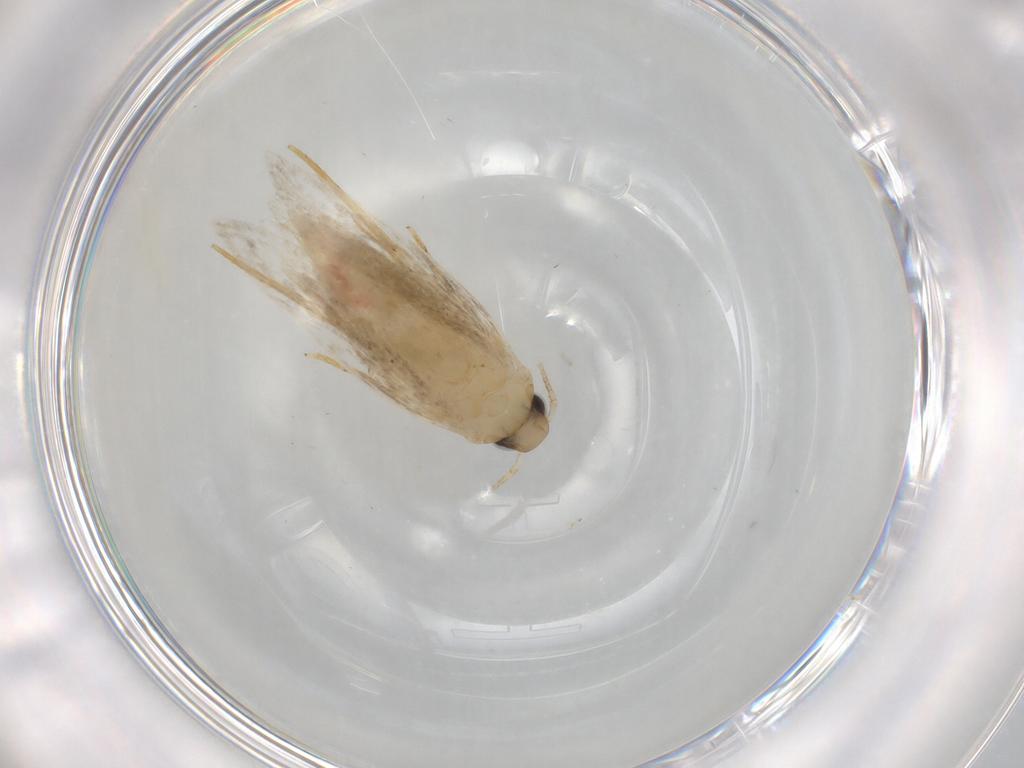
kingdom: Animalia
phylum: Arthropoda
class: Insecta
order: Lepidoptera
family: Autostichidae
